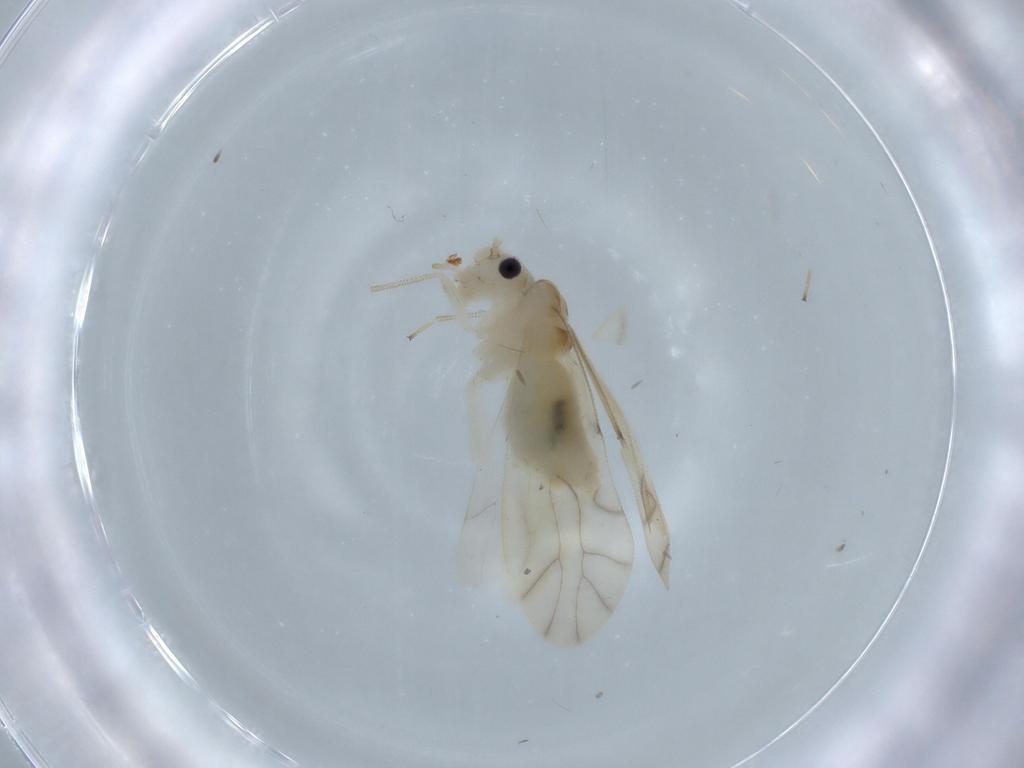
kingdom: Animalia
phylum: Arthropoda
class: Insecta
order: Psocodea
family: Caeciliusidae
